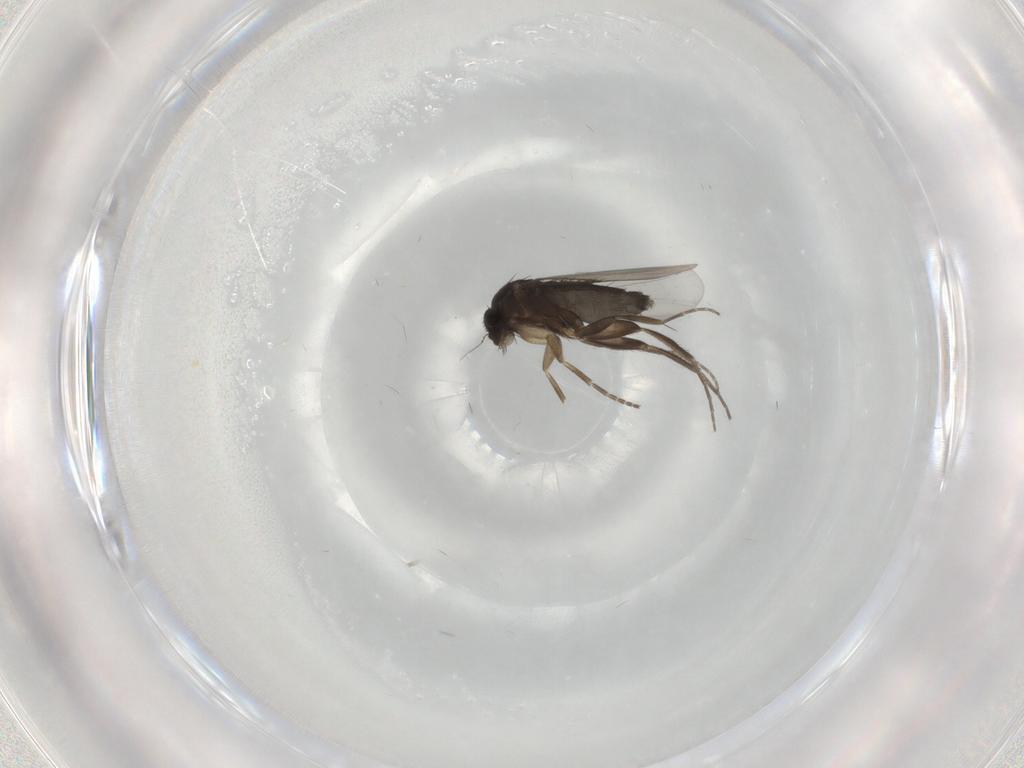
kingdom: Animalia
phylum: Arthropoda
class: Insecta
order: Diptera
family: Phoridae
